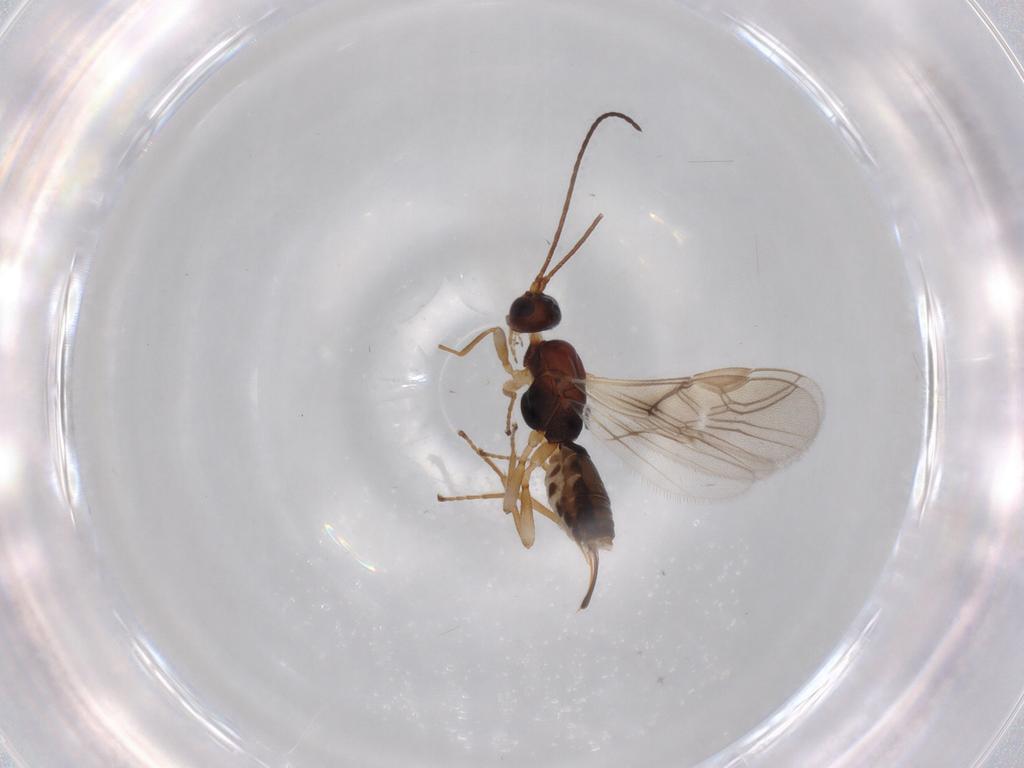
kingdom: Animalia
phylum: Arthropoda
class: Insecta
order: Hymenoptera
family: Braconidae
